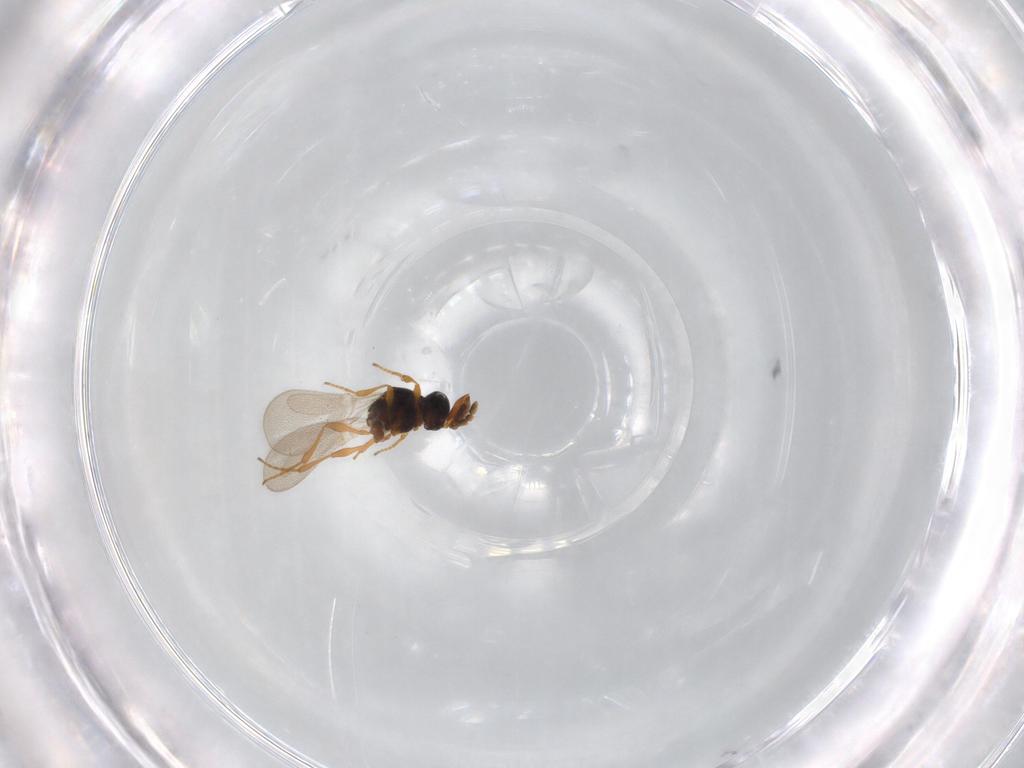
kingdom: Animalia
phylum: Arthropoda
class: Insecta
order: Hymenoptera
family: Platygastridae
